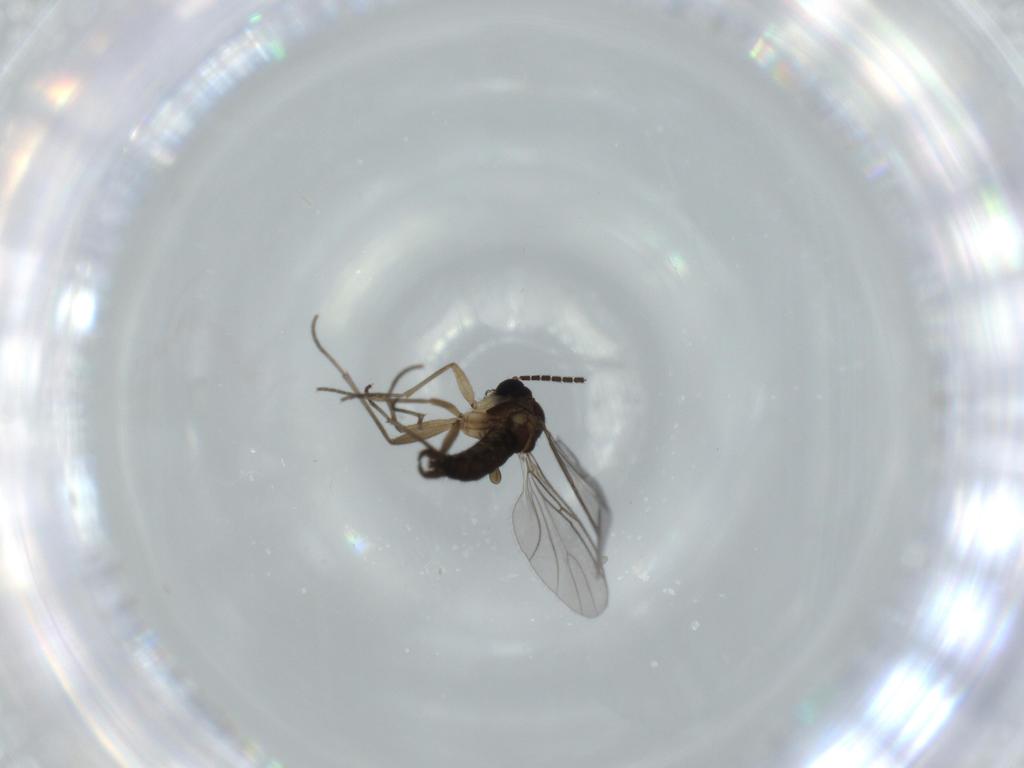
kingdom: Animalia
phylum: Arthropoda
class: Insecta
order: Diptera
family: Sciaridae
